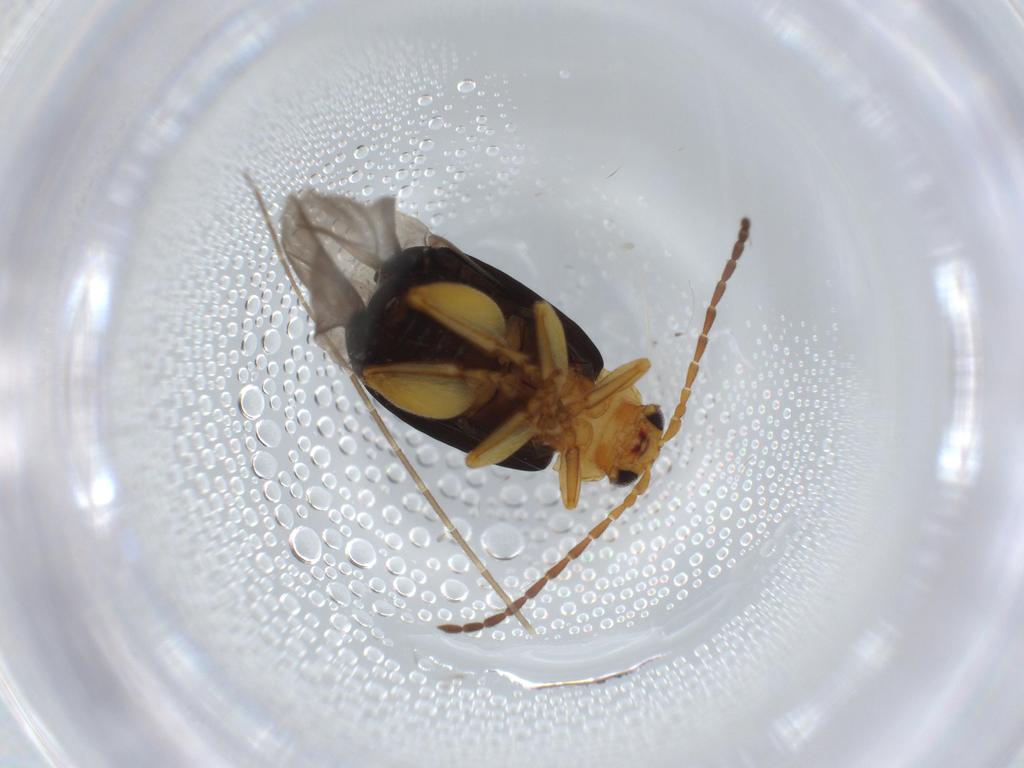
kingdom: Animalia
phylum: Arthropoda
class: Insecta
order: Coleoptera
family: Chrysomelidae
